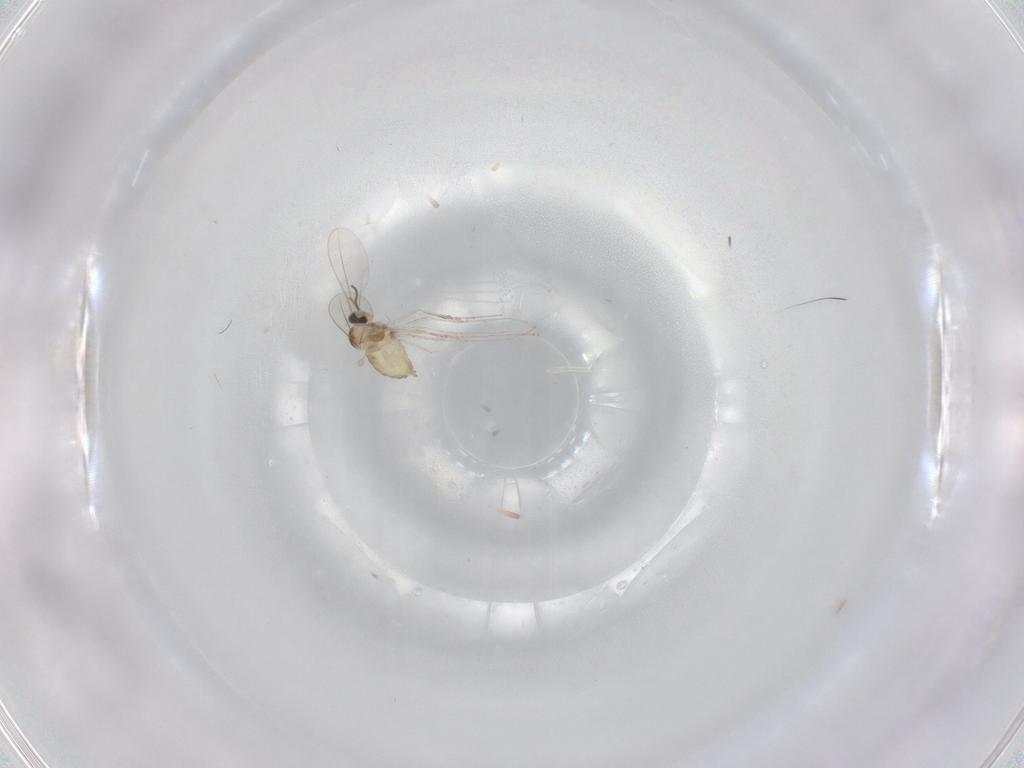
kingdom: Animalia
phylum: Arthropoda
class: Insecta
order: Diptera
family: Cecidomyiidae
